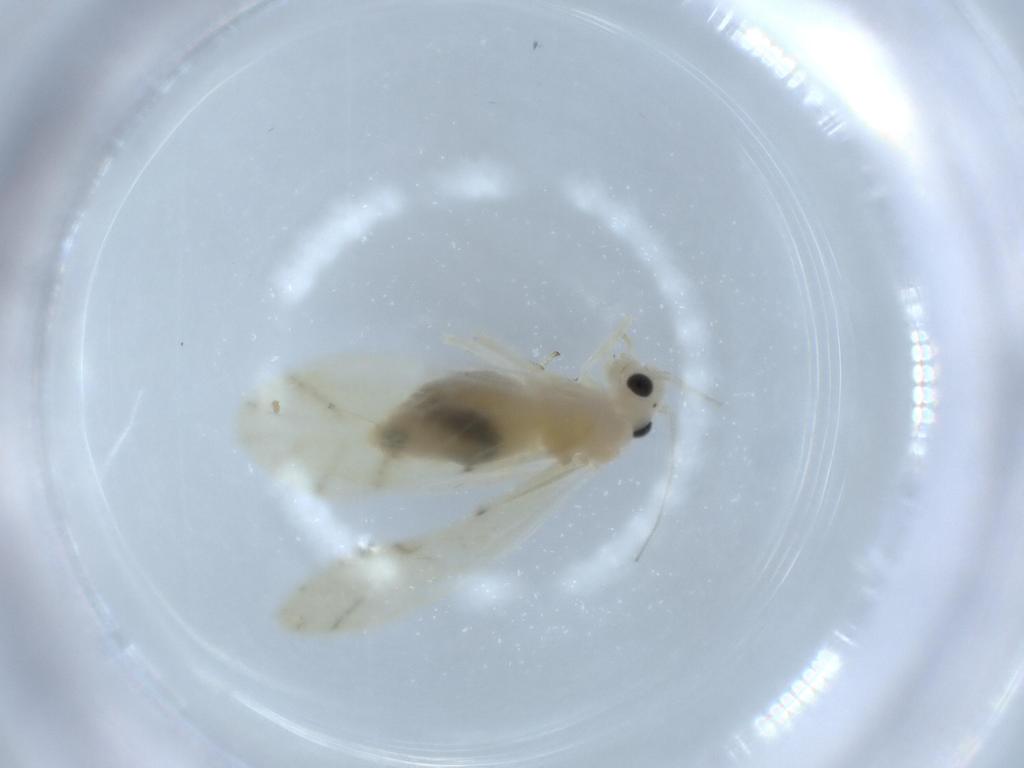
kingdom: Animalia
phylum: Arthropoda
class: Insecta
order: Psocodea
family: Caeciliusidae
